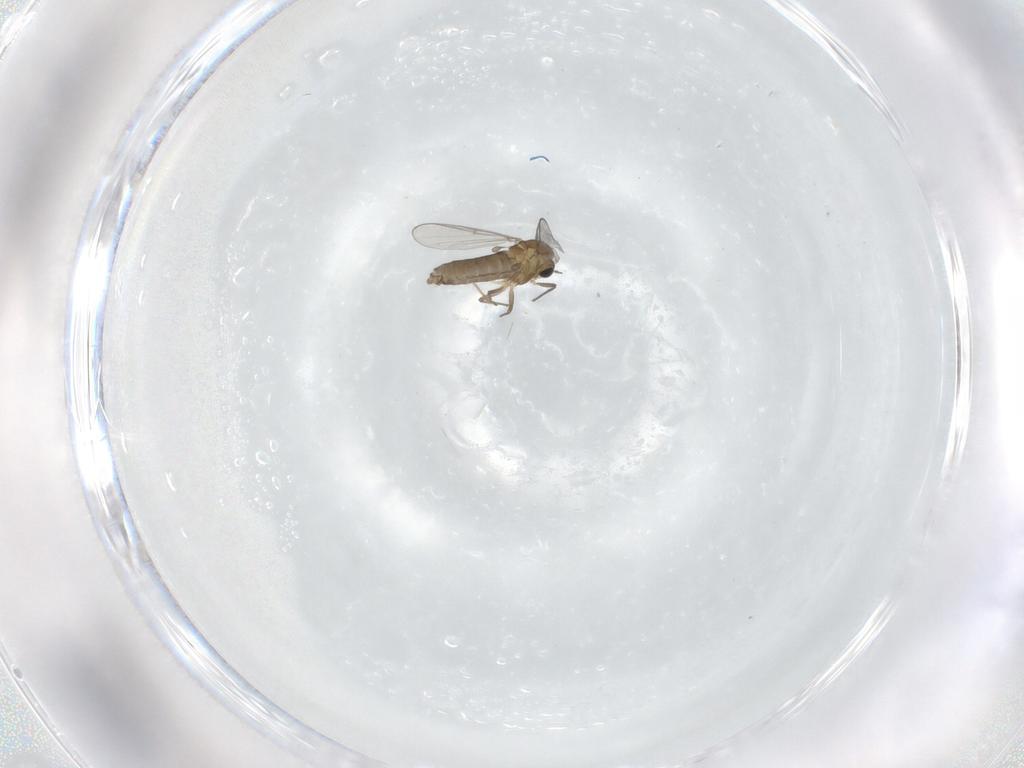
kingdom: Animalia
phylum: Arthropoda
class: Insecta
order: Diptera
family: Chironomidae
